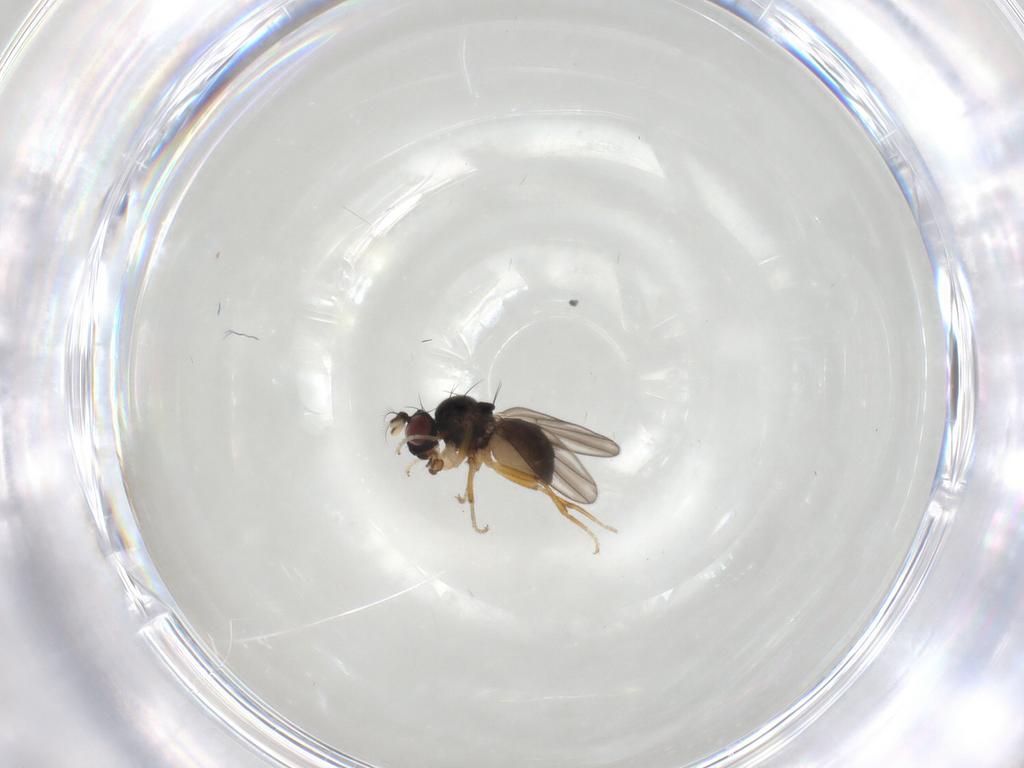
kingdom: Animalia
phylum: Arthropoda
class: Insecta
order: Diptera
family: Ephydridae
